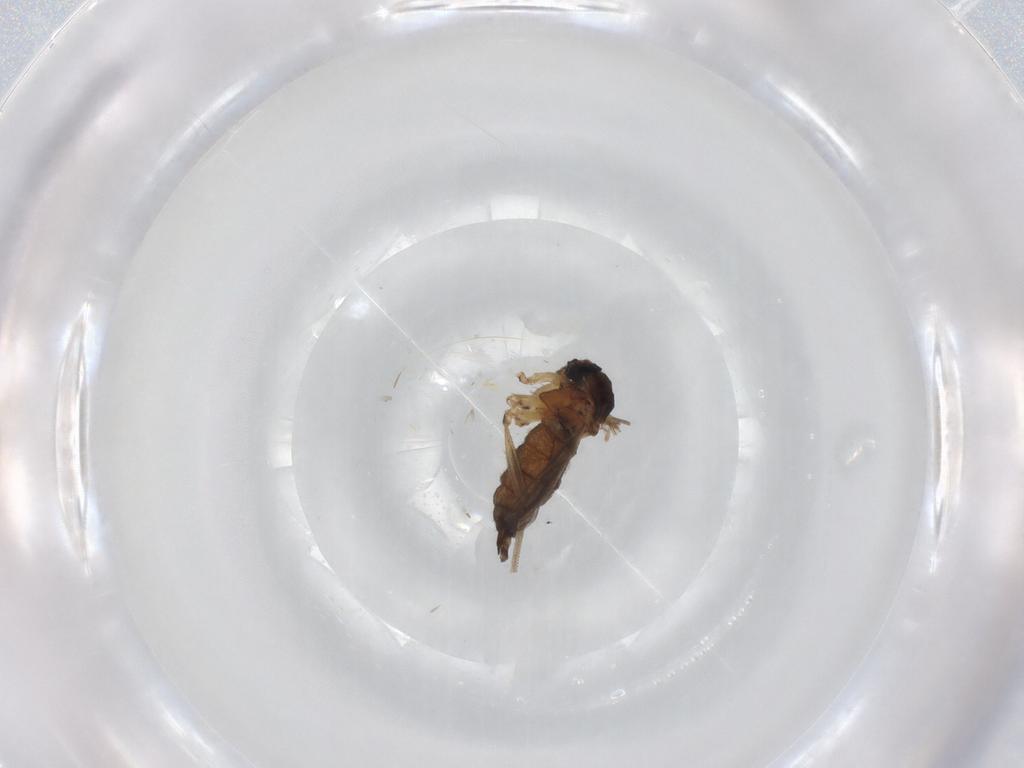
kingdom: Animalia
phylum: Arthropoda
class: Insecta
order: Diptera
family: Sciaridae
